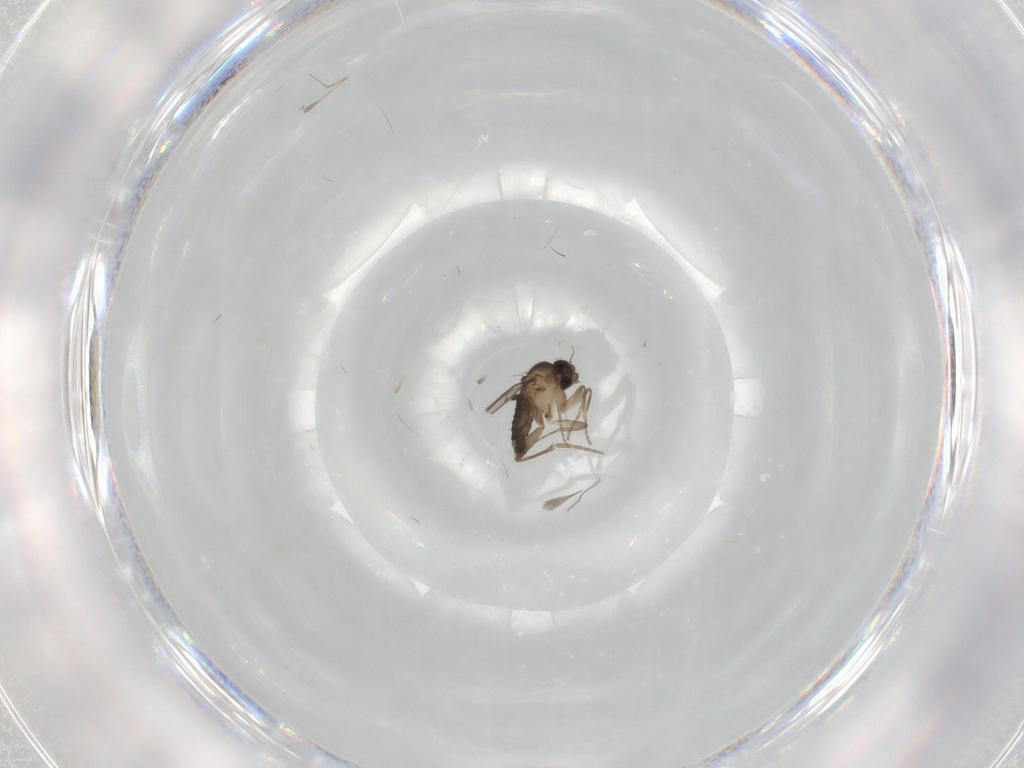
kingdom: Animalia
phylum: Arthropoda
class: Insecta
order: Diptera
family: Phoridae
